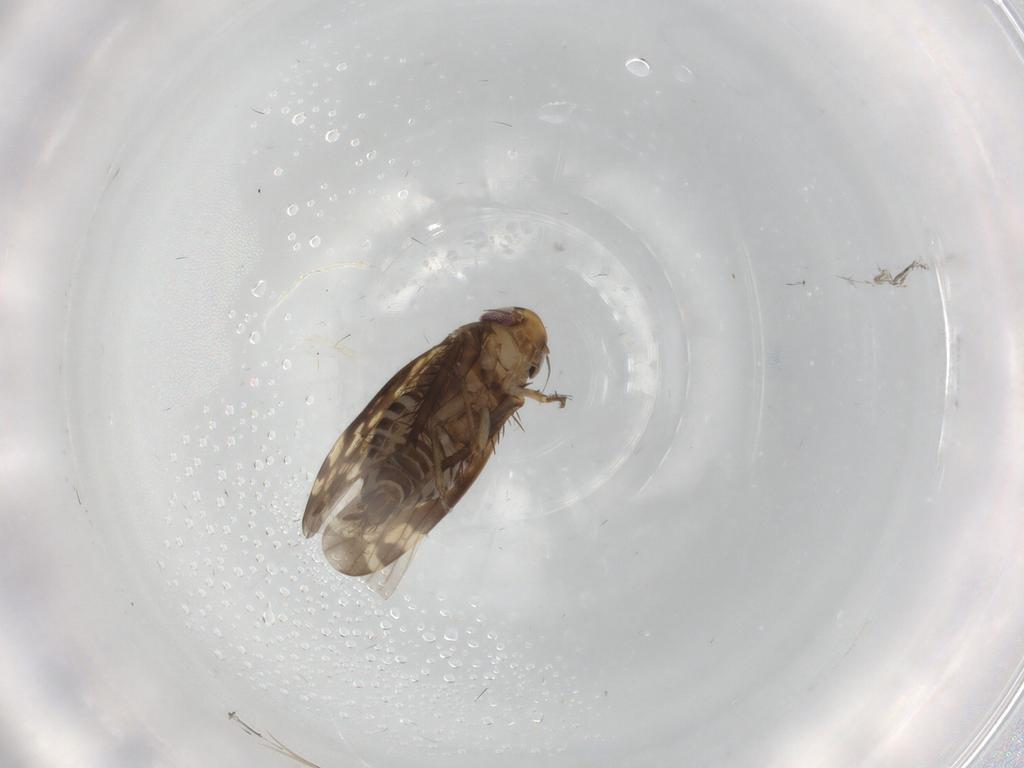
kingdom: Animalia
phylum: Arthropoda
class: Insecta
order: Hemiptera
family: Cicadellidae
